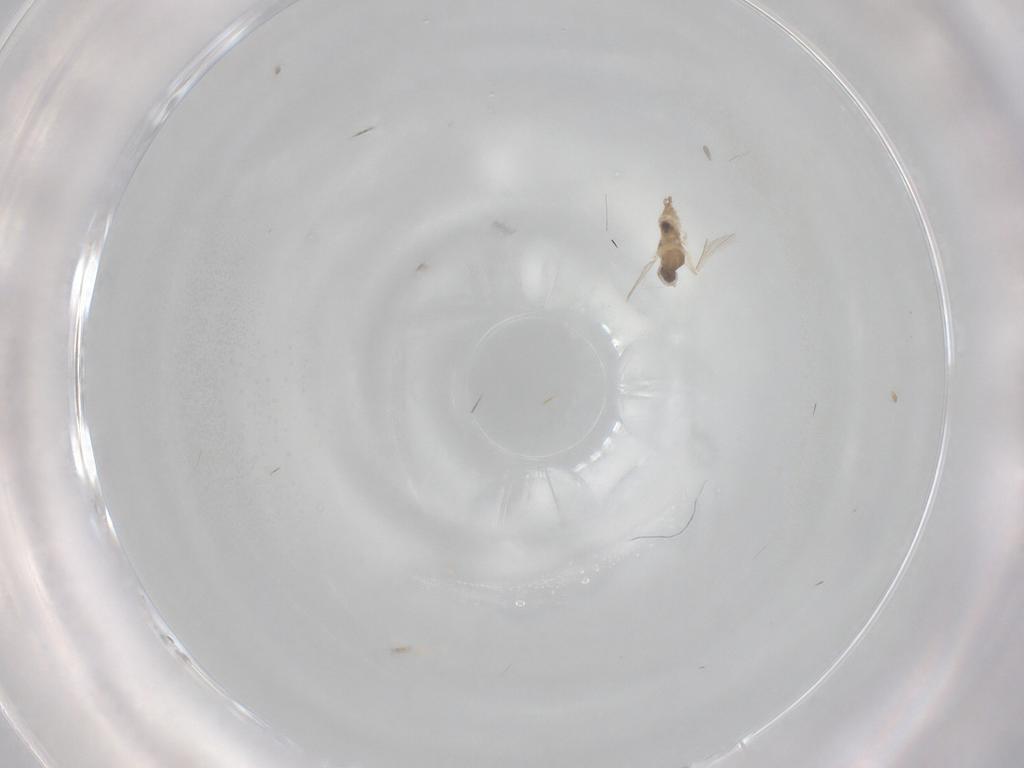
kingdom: Animalia
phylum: Arthropoda
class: Insecta
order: Diptera
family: Cecidomyiidae
